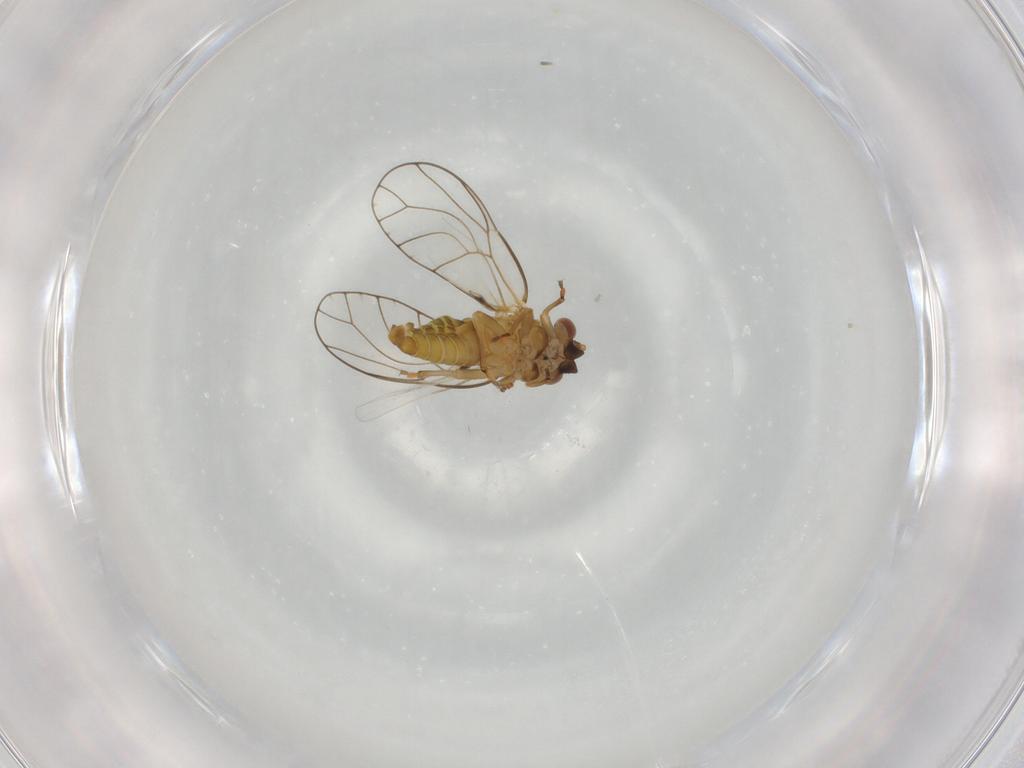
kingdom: Animalia
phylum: Arthropoda
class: Insecta
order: Hemiptera
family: Psylloidea_incertae_sedis
